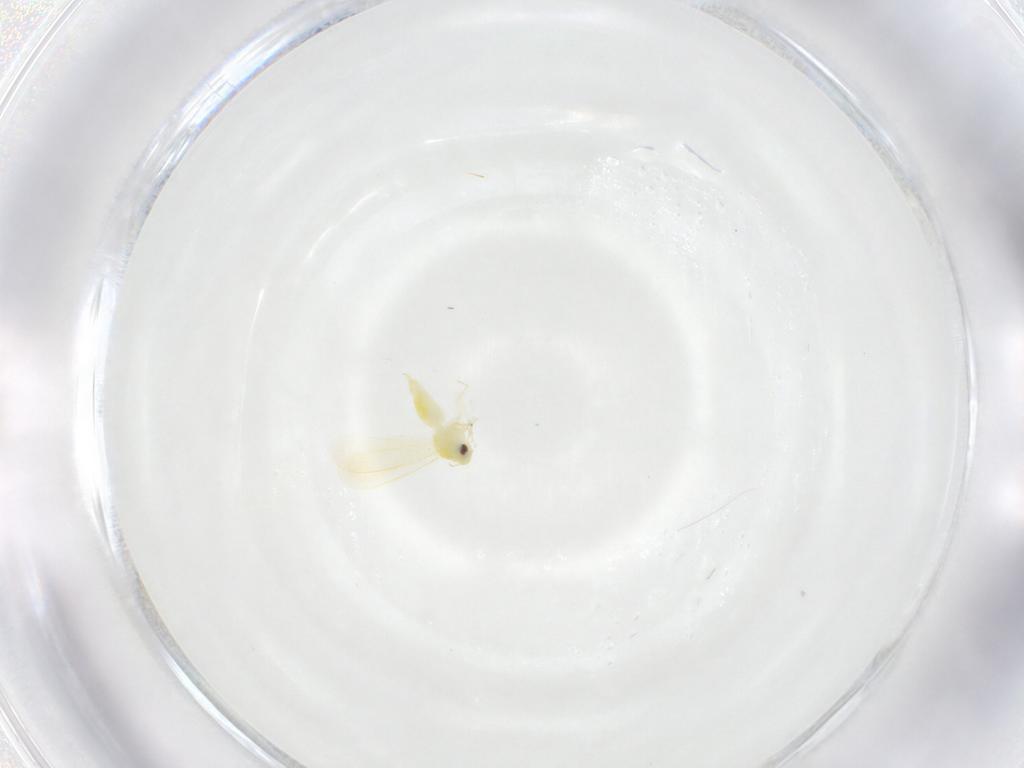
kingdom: Animalia
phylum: Arthropoda
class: Insecta
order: Hemiptera
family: Aleyrodidae
